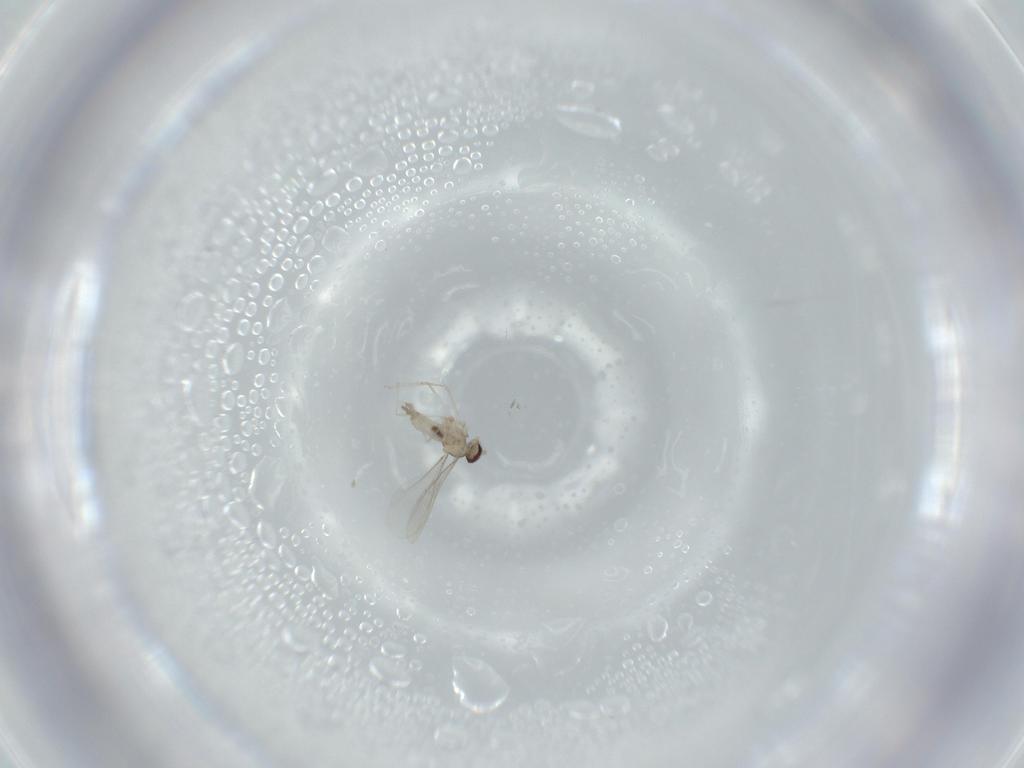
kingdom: Animalia
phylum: Arthropoda
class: Insecta
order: Diptera
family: Cecidomyiidae
